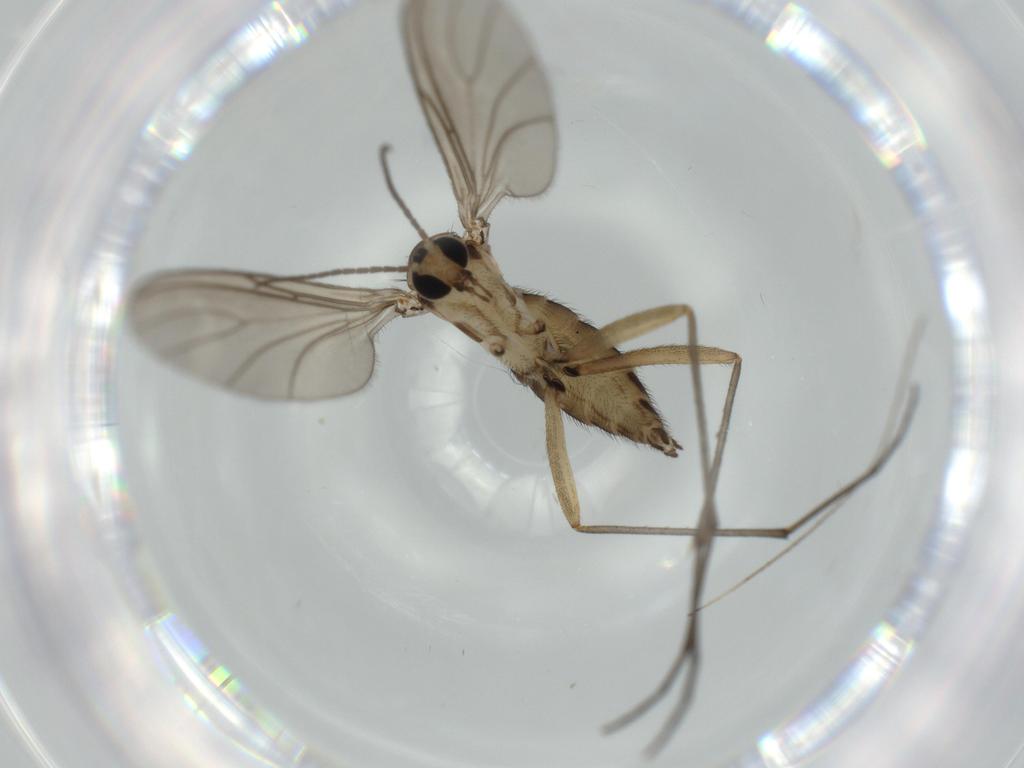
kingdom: Animalia
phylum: Arthropoda
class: Insecta
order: Diptera
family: Sciaridae
